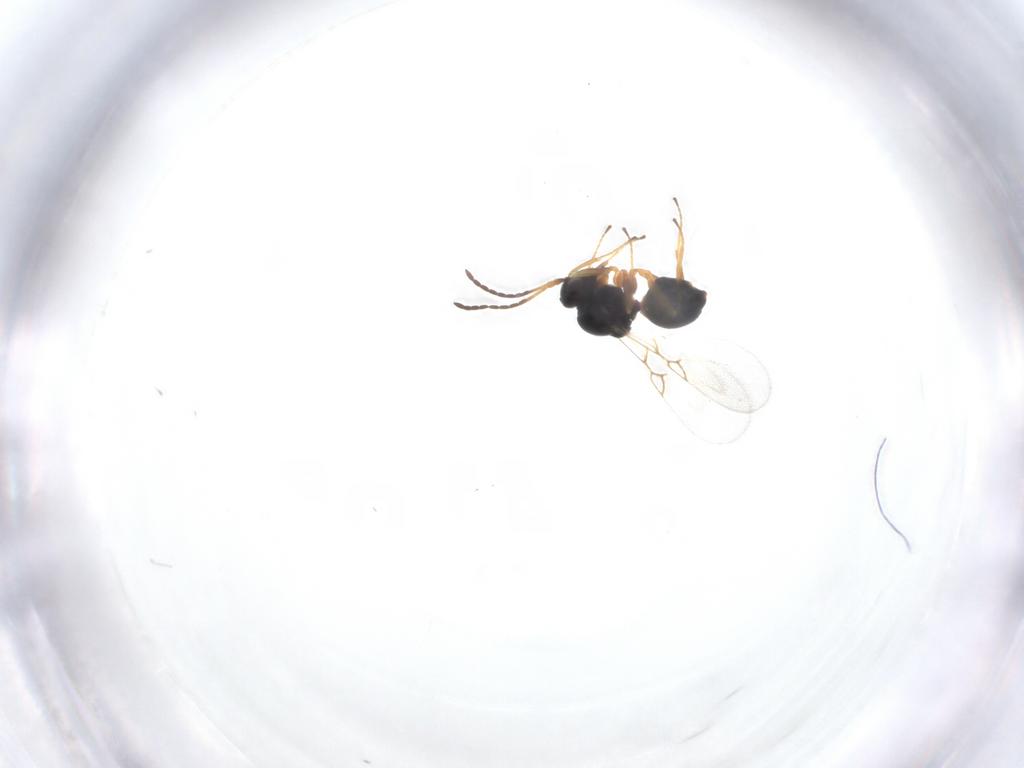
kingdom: Animalia
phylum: Arthropoda
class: Insecta
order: Hymenoptera
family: Figitidae
